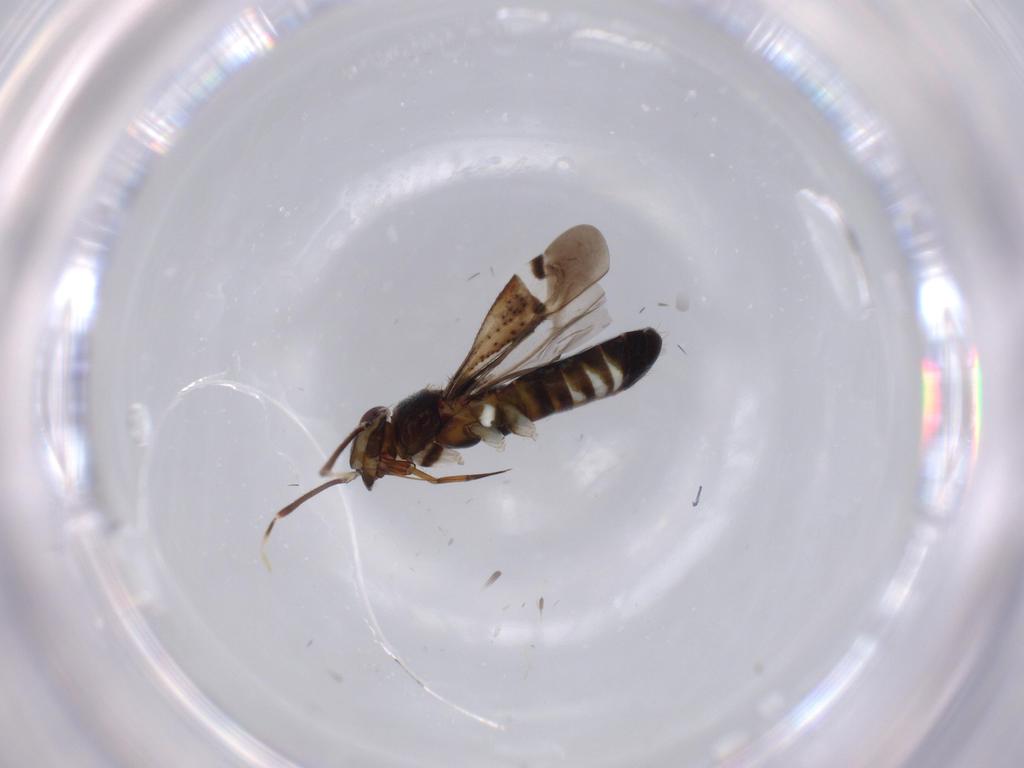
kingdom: Animalia
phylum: Arthropoda
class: Insecta
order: Hemiptera
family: Miridae
